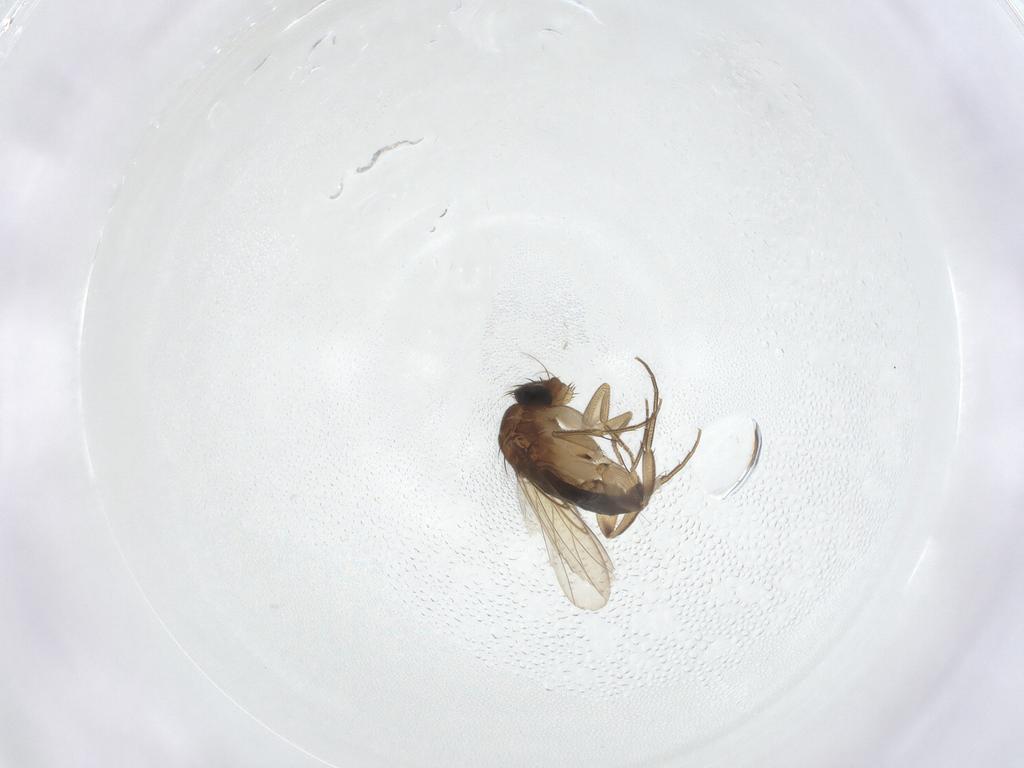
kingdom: Animalia
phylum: Arthropoda
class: Insecta
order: Diptera
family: Phoridae
